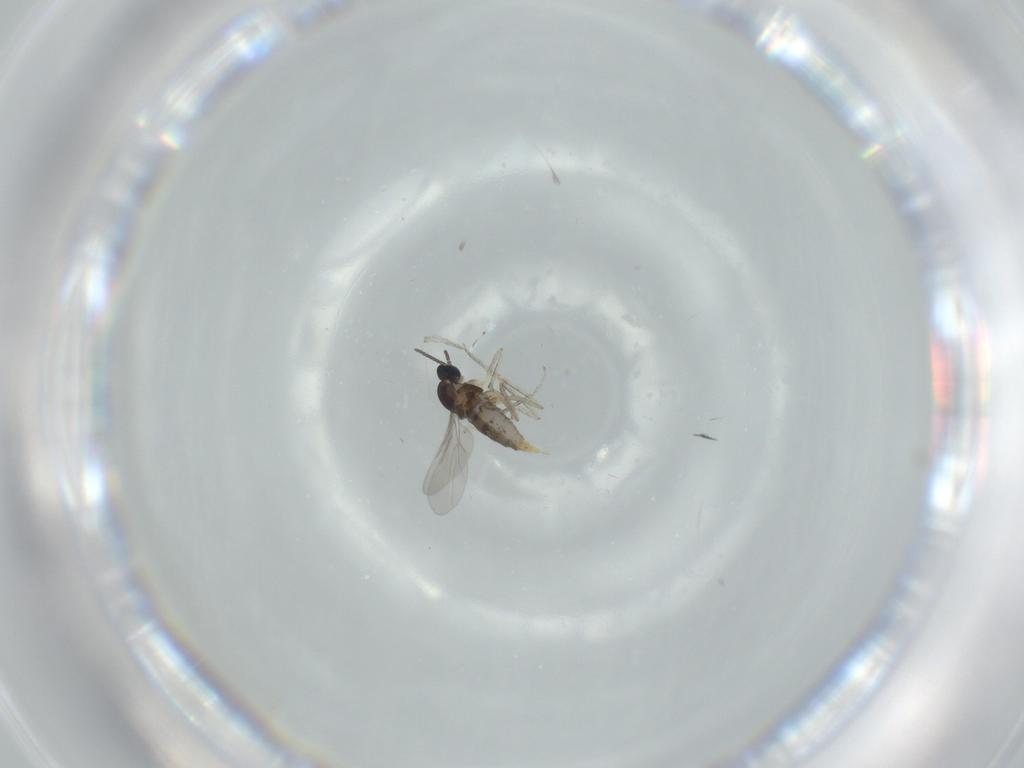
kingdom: Animalia
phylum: Arthropoda
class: Insecta
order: Diptera
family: Cecidomyiidae
